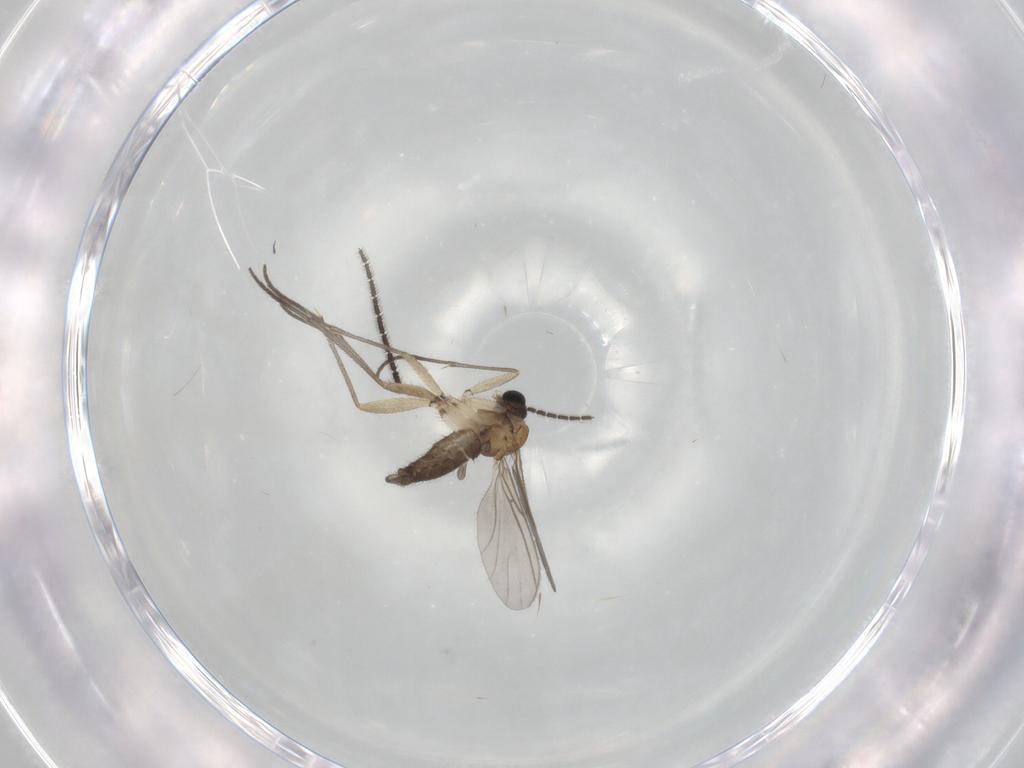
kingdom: Animalia
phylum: Arthropoda
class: Insecta
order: Diptera
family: Sciaridae
